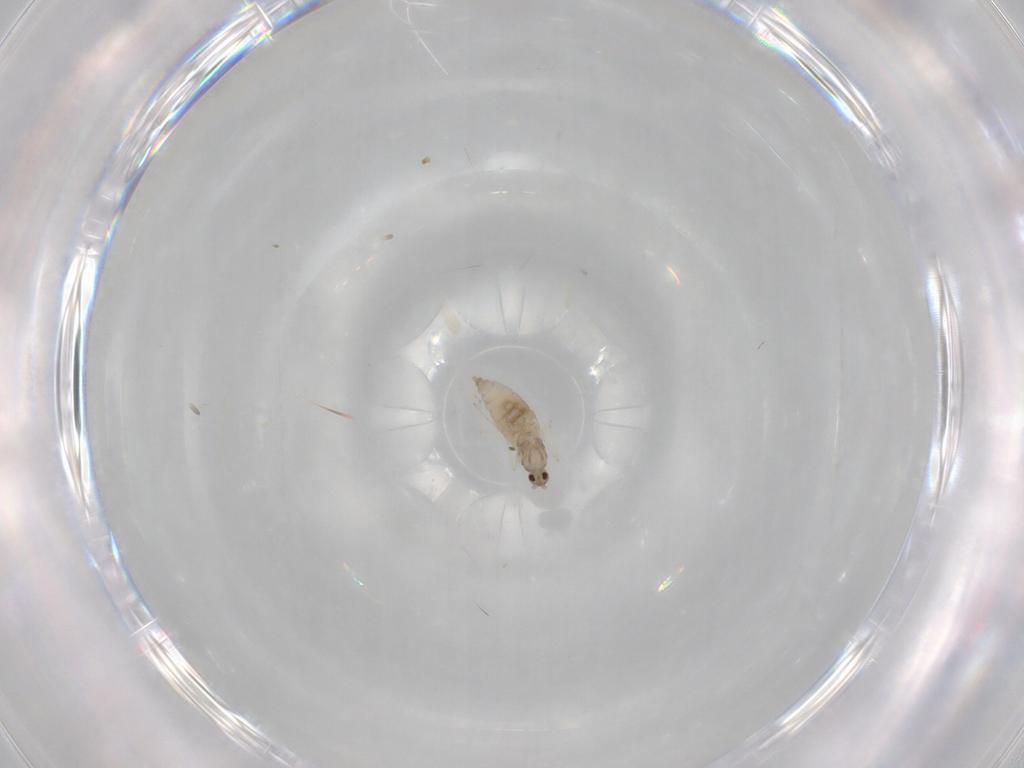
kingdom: Animalia
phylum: Arthropoda
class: Insecta
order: Diptera
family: Cecidomyiidae
